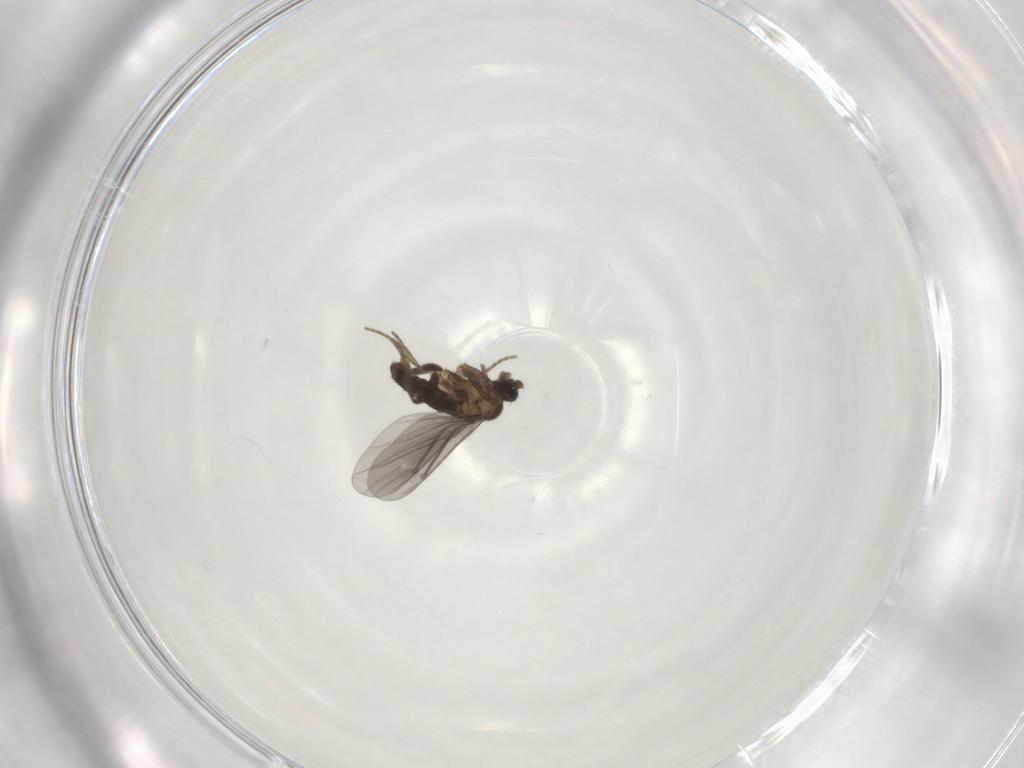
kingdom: Animalia
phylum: Arthropoda
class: Insecta
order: Diptera
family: Phoridae
